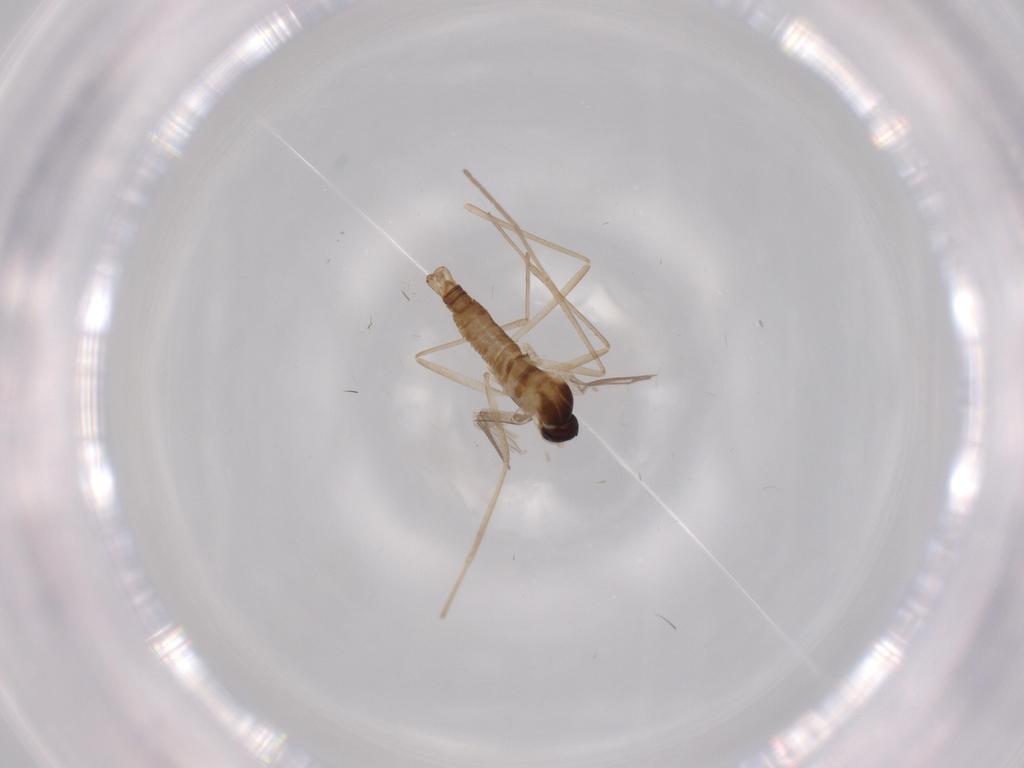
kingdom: Animalia
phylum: Arthropoda
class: Insecta
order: Diptera
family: Cecidomyiidae
